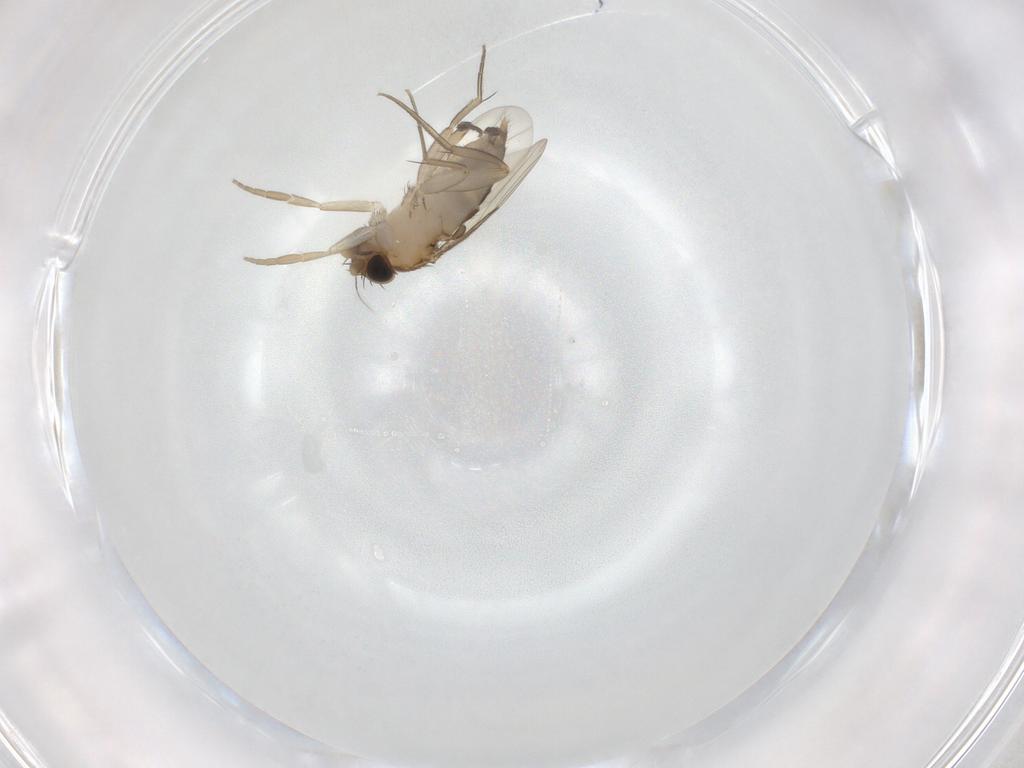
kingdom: Animalia
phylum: Arthropoda
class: Insecta
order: Diptera
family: Phoridae
